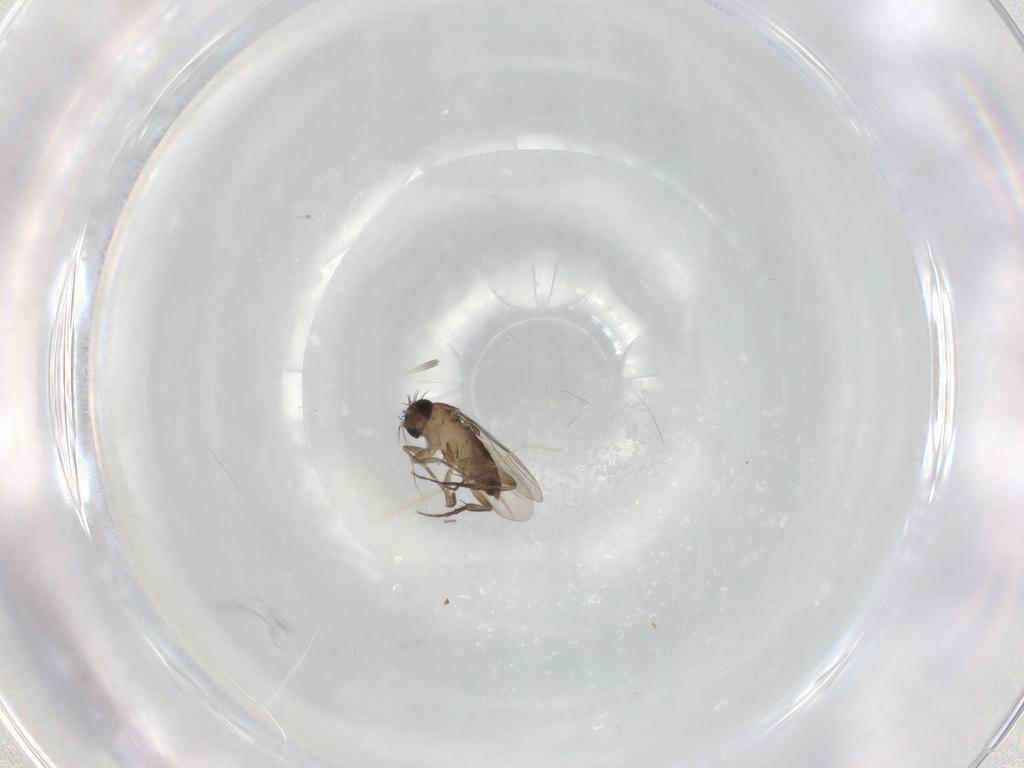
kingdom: Animalia
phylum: Arthropoda
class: Insecta
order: Diptera
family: Phoridae
